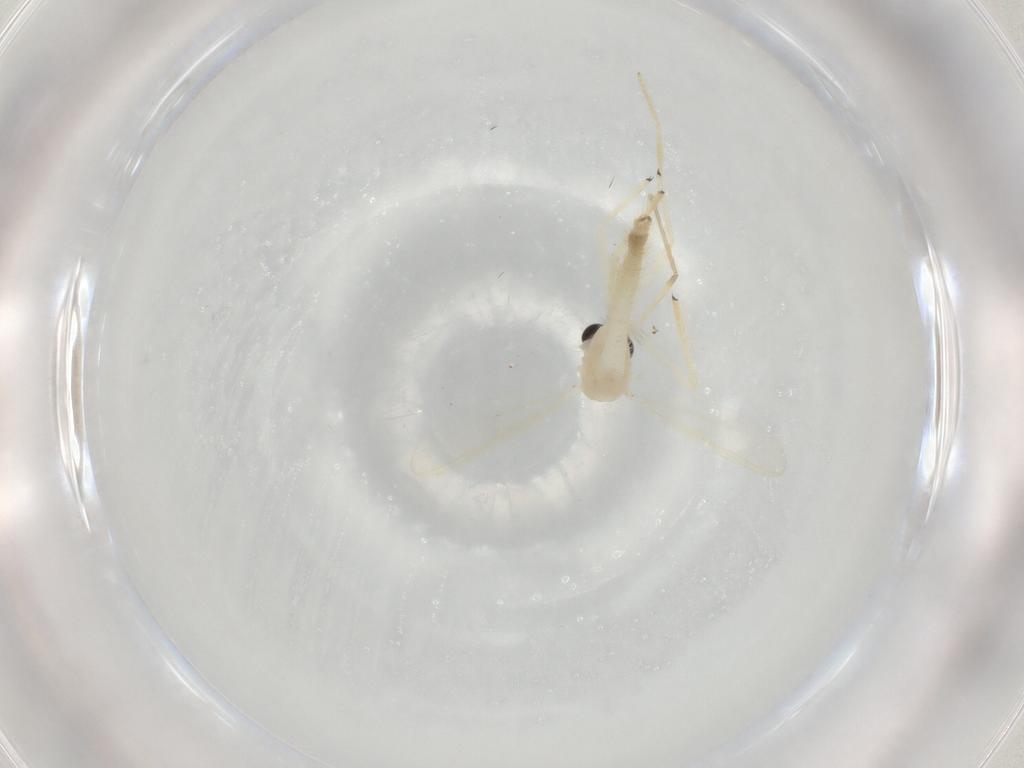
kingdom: Animalia
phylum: Arthropoda
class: Insecta
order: Diptera
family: Chironomidae
